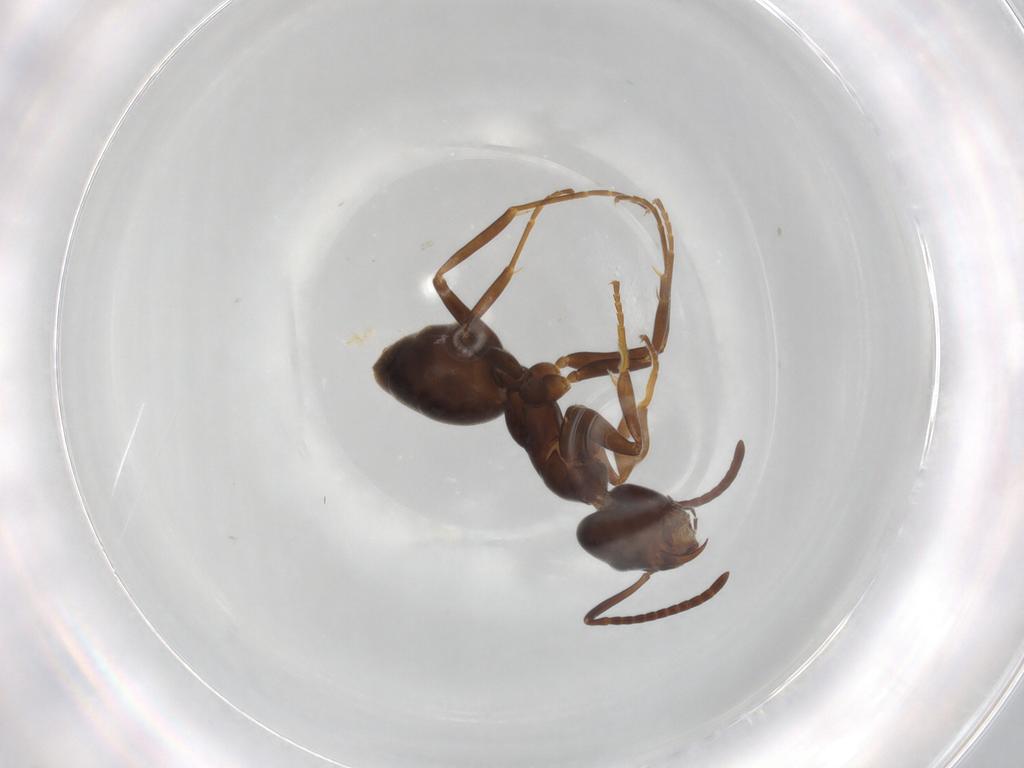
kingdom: Animalia
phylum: Arthropoda
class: Insecta
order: Hymenoptera
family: Formicidae
